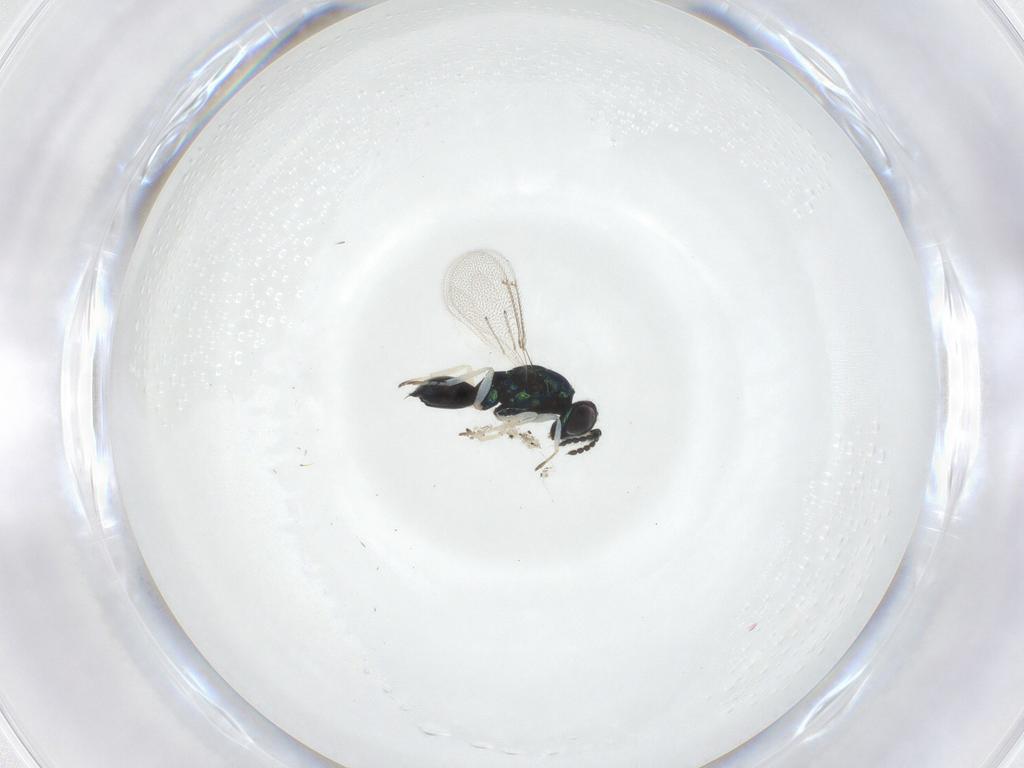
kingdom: Animalia
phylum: Arthropoda
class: Insecta
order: Hymenoptera
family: Eulophidae
